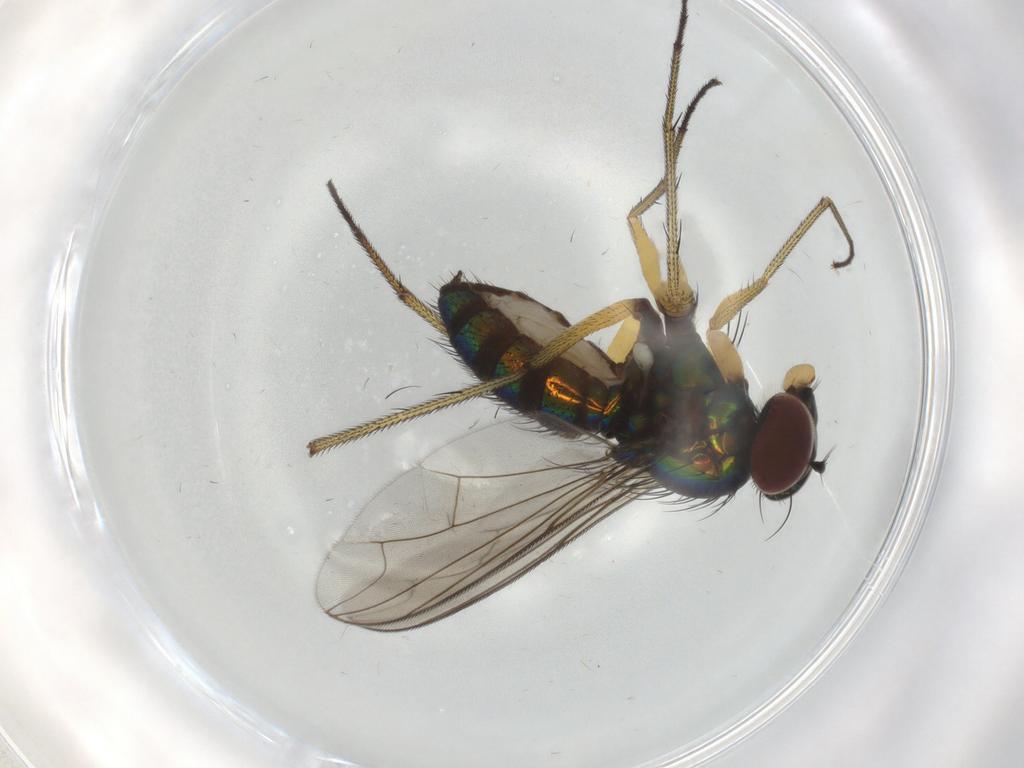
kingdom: Animalia
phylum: Arthropoda
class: Insecta
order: Diptera
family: Dolichopodidae
